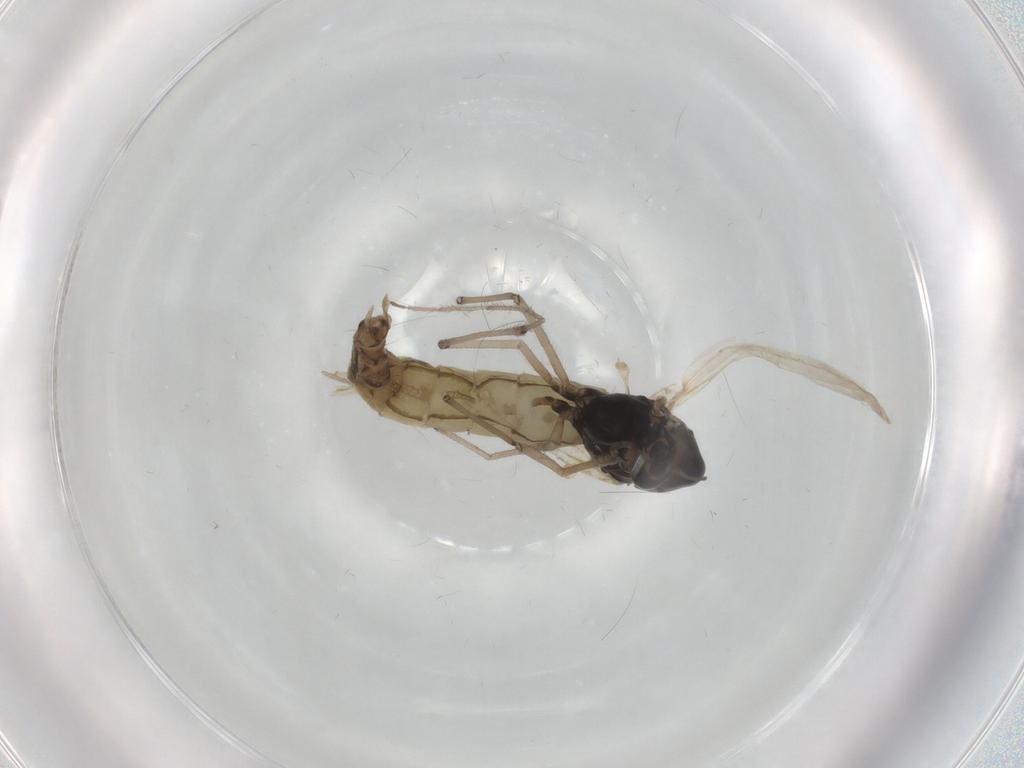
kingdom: Animalia
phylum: Arthropoda
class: Insecta
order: Diptera
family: Chironomidae
